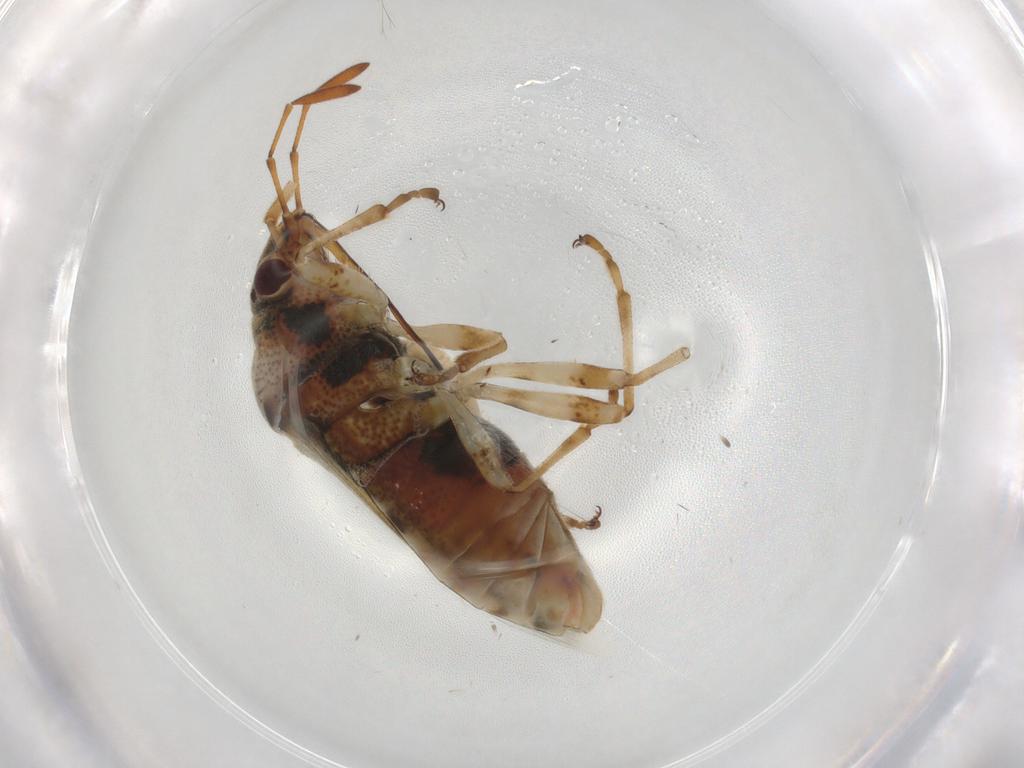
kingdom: Animalia
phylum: Arthropoda
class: Insecta
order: Hemiptera
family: Lygaeidae
